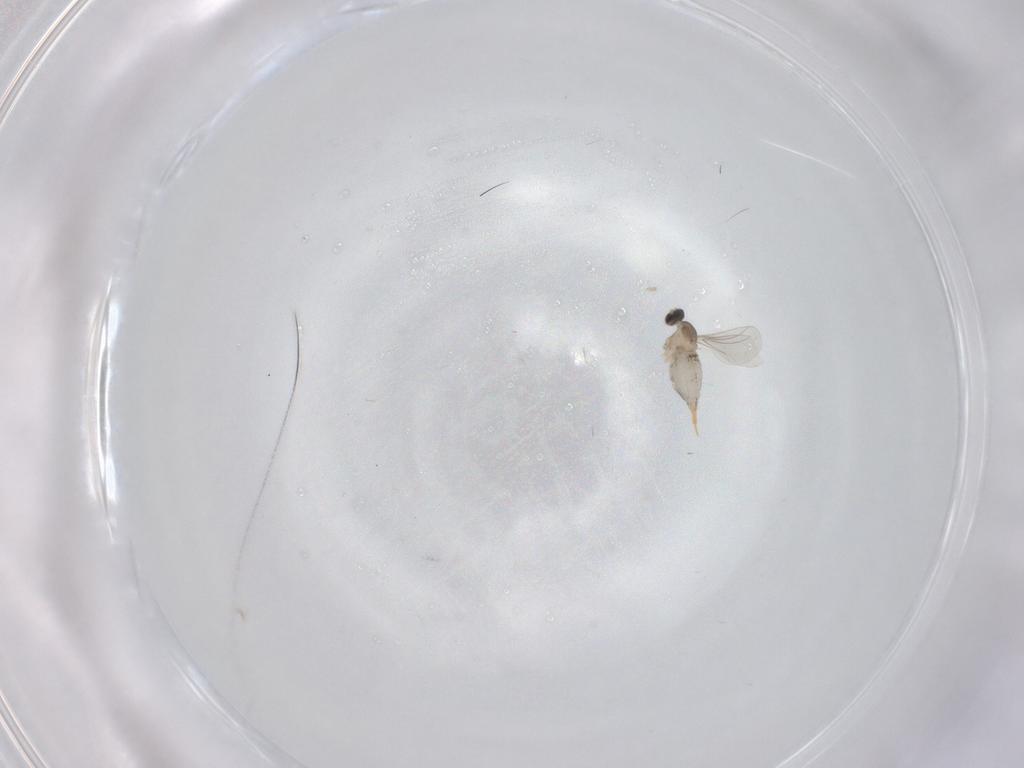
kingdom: Animalia
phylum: Arthropoda
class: Insecta
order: Diptera
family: Cecidomyiidae
